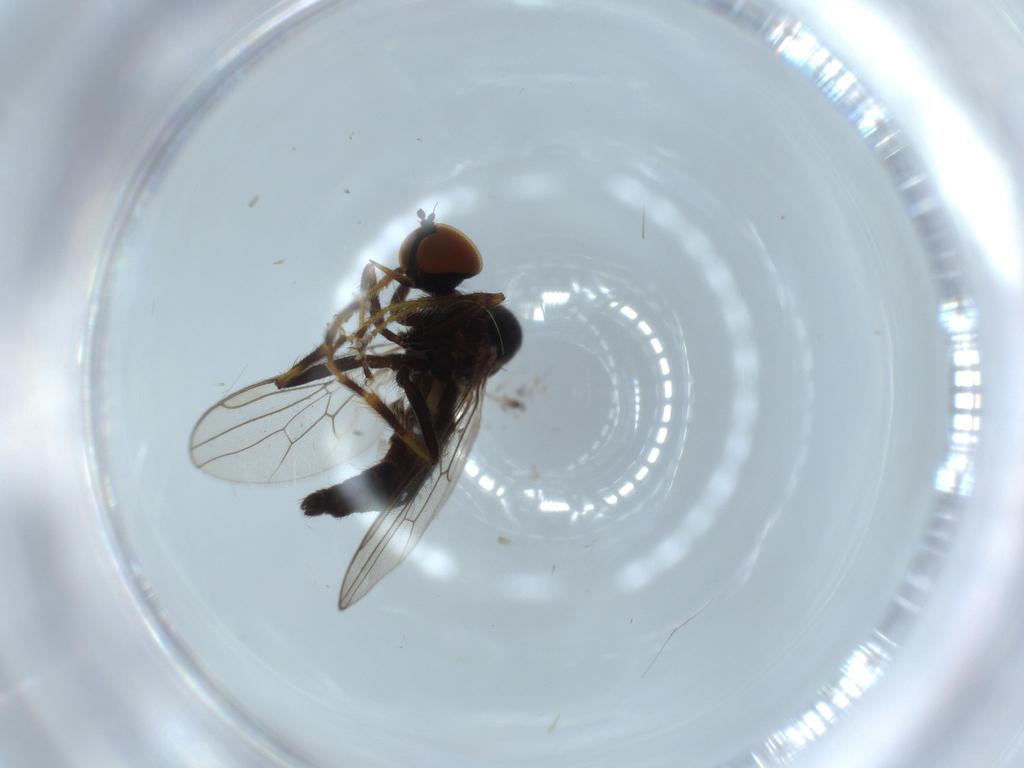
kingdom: Animalia
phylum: Arthropoda
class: Insecta
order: Diptera
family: Hybotidae
